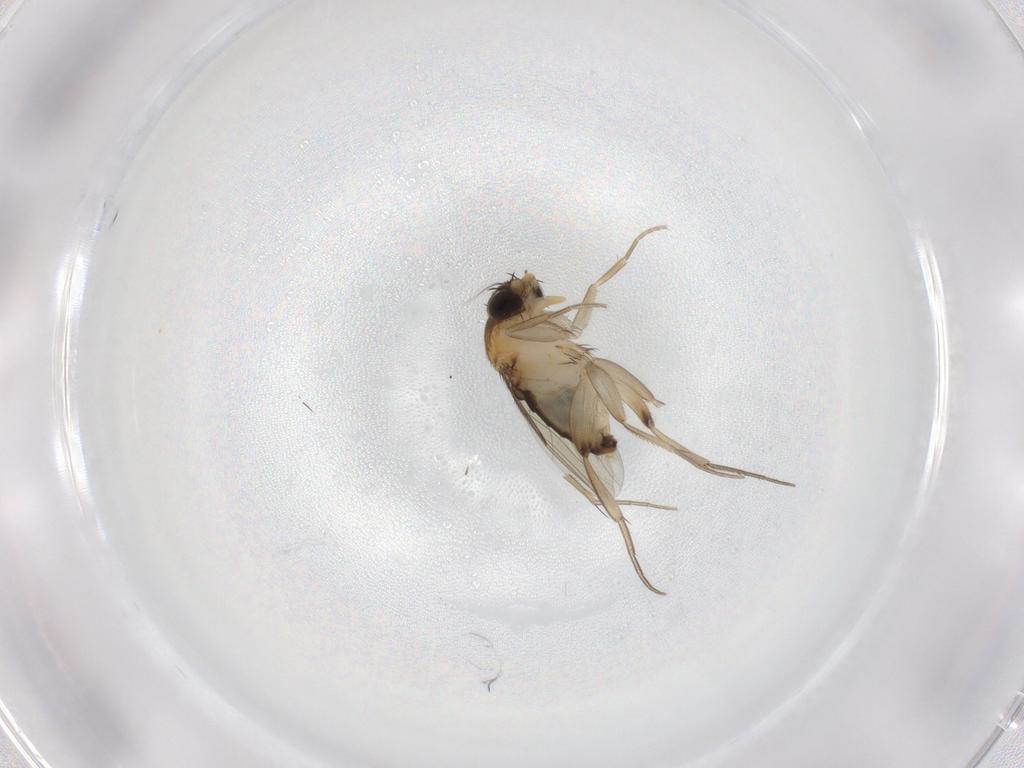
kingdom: Animalia
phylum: Arthropoda
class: Insecta
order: Diptera
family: Phoridae
